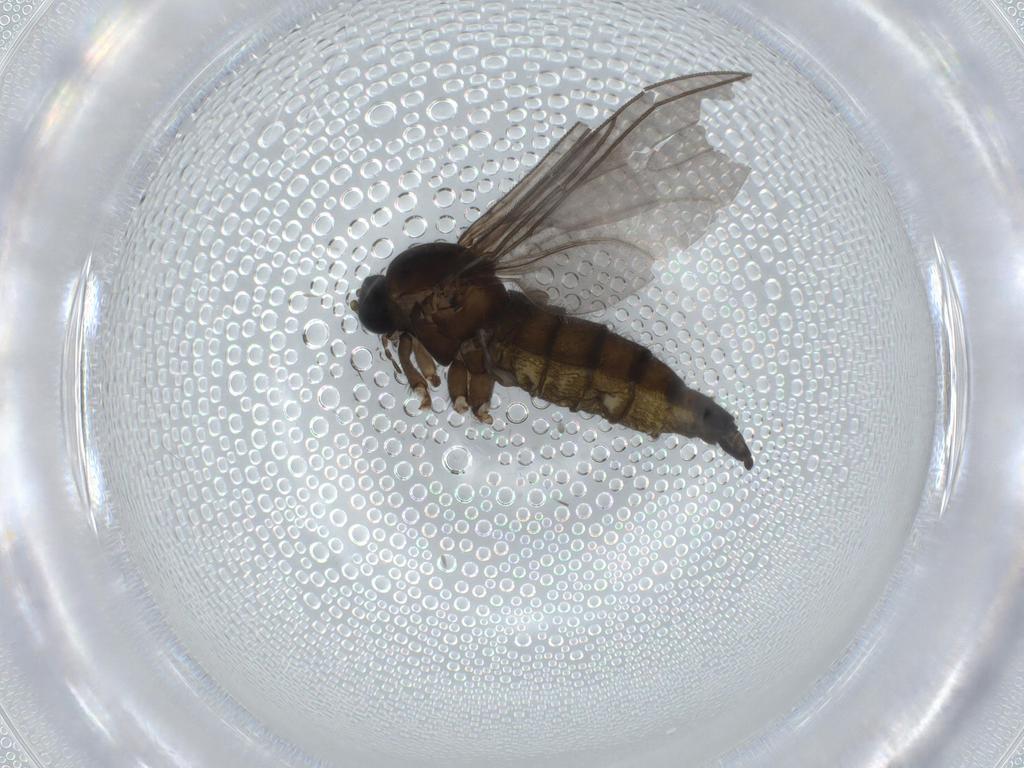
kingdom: Animalia
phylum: Arthropoda
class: Insecta
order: Diptera
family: Sciaridae
